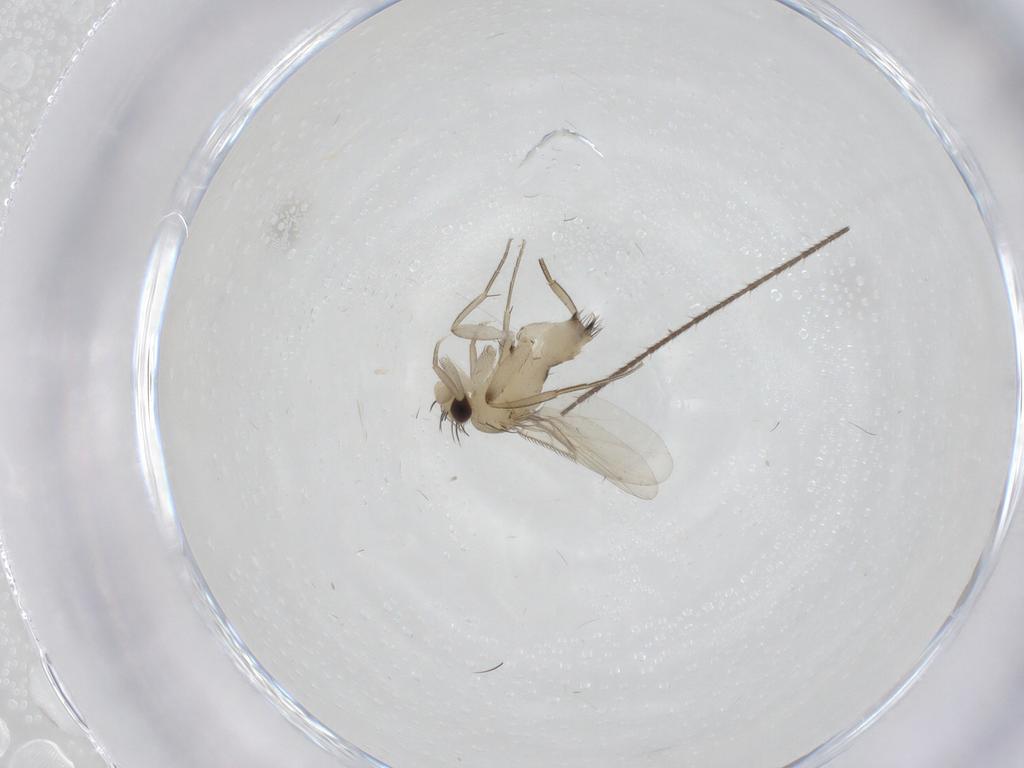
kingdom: Animalia
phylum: Arthropoda
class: Insecta
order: Diptera
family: Phoridae
